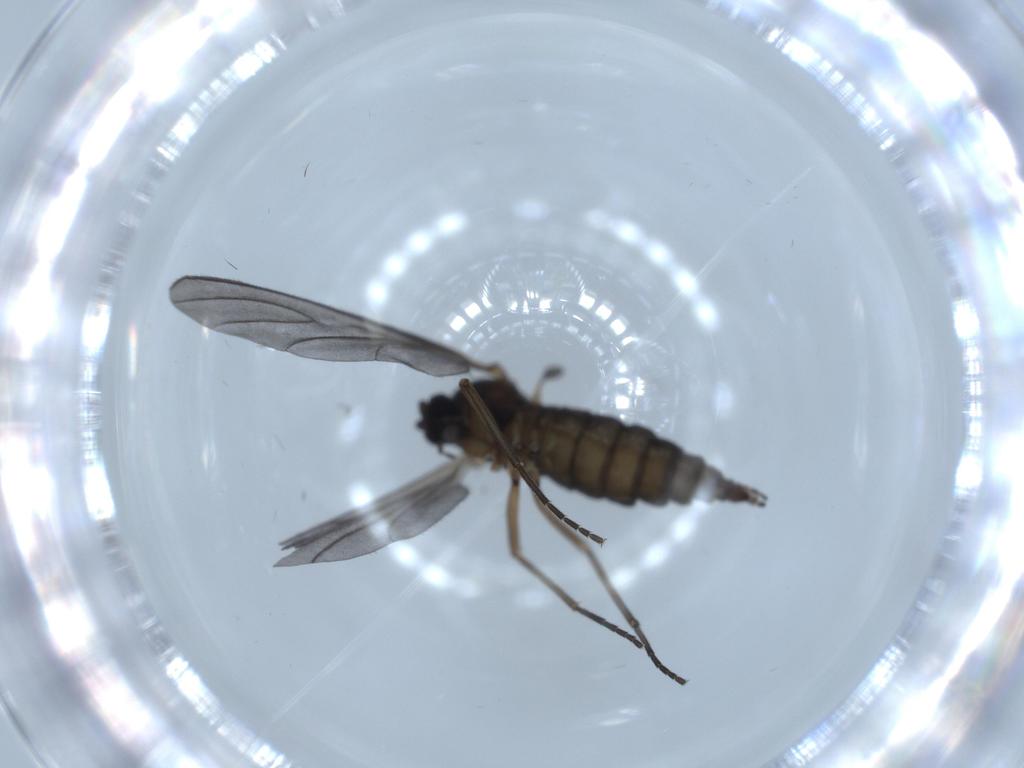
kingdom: Animalia
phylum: Arthropoda
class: Insecta
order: Diptera
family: Sciaridae
